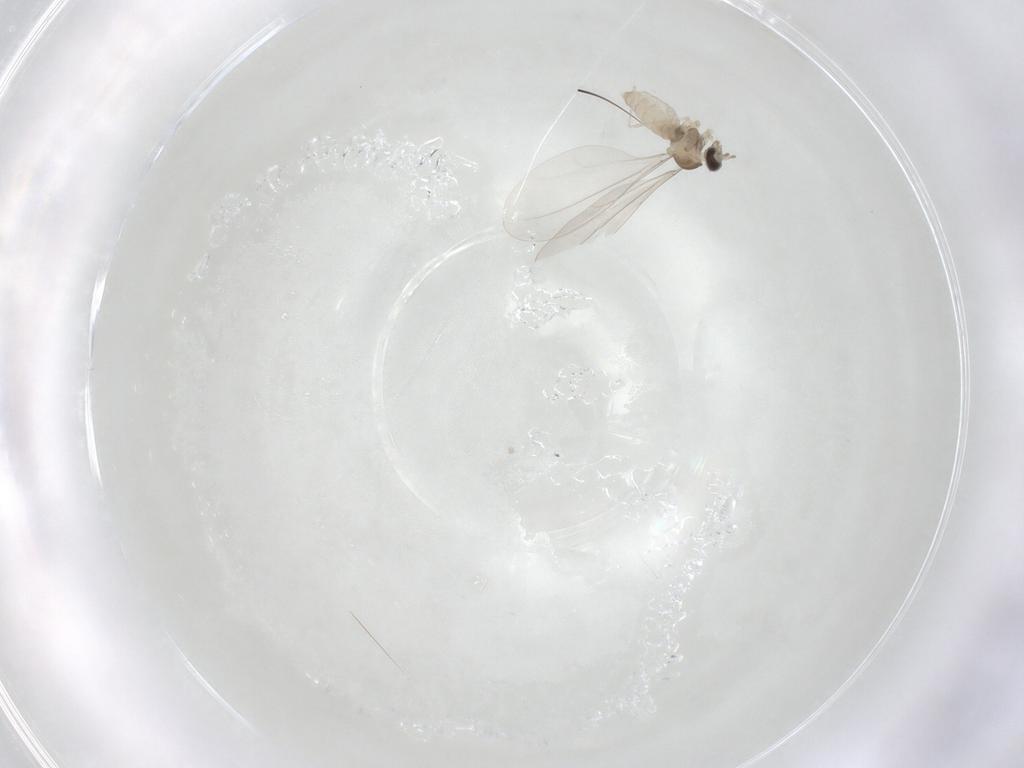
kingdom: Animalia
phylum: Arthropoda
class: Insecta
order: Diptera
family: Cecidomyiidae
